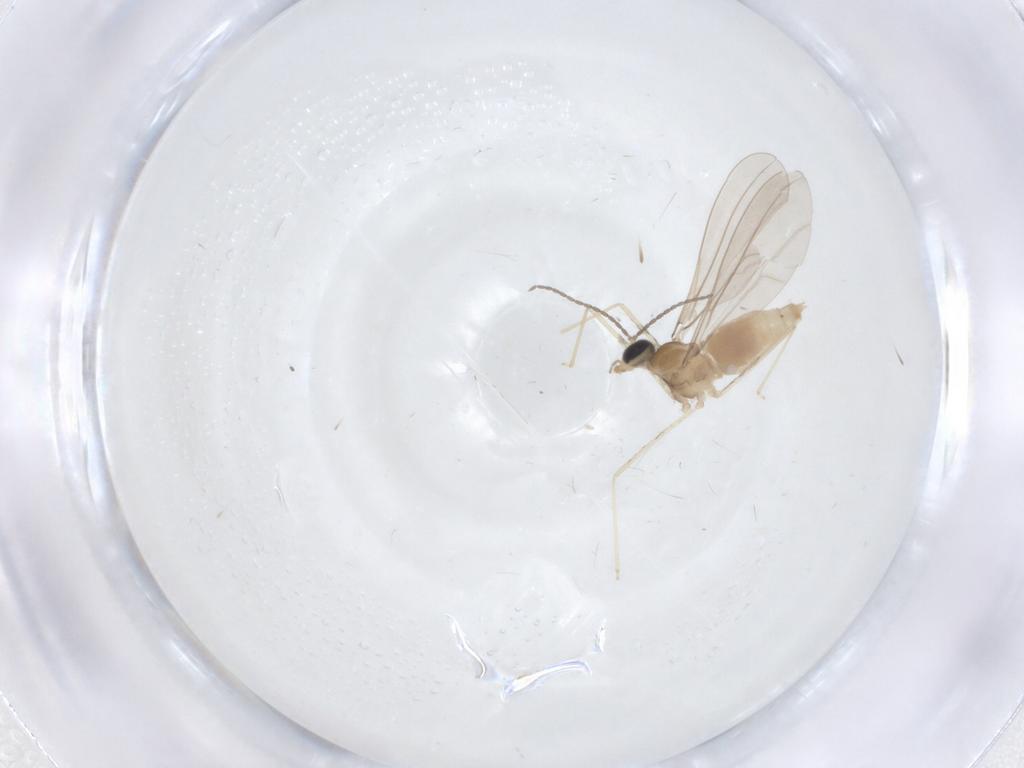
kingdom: Animalia
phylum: Arthropoda
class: Insecta
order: Diptera
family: Cecidomyiidae
